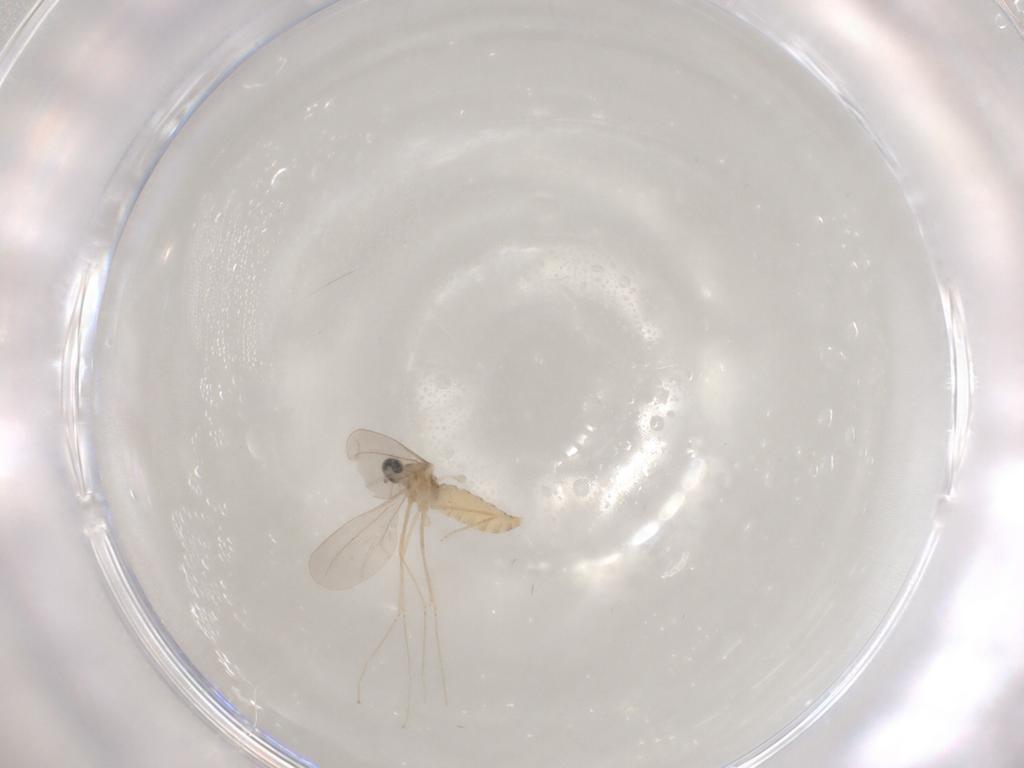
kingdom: Animalia
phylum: Arthropoda
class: Insecta
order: Diptera
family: Cecidomyiidae
